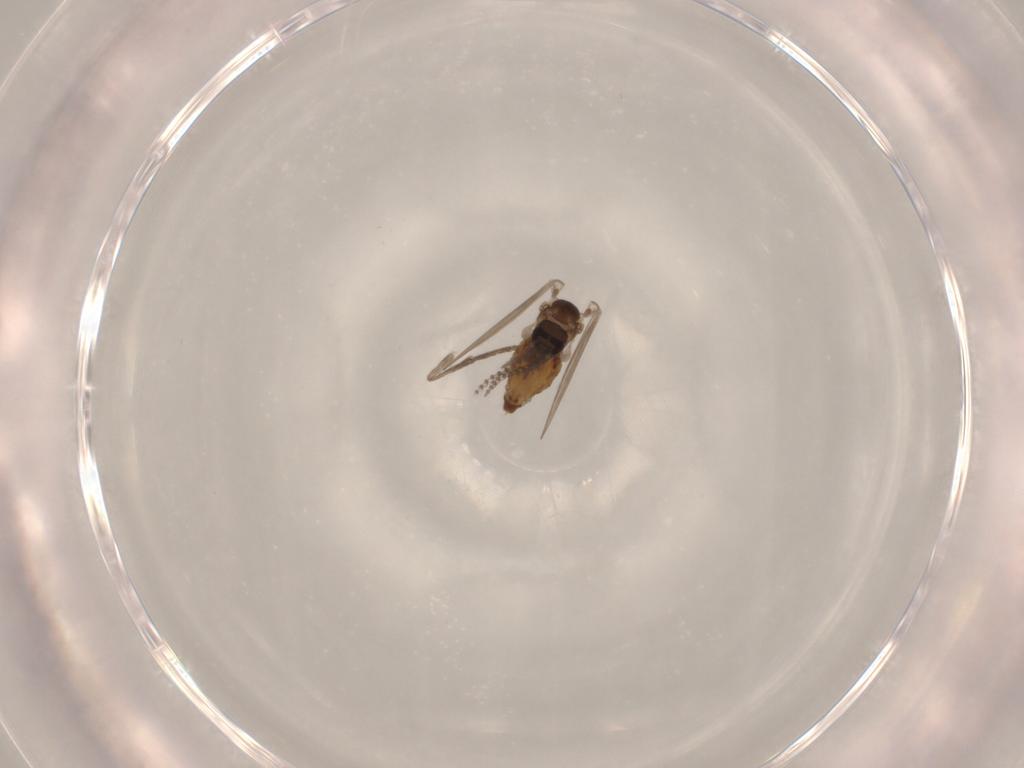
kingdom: Animalia
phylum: Arthropoda
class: Insecta
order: Diptera
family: Psychodidae
